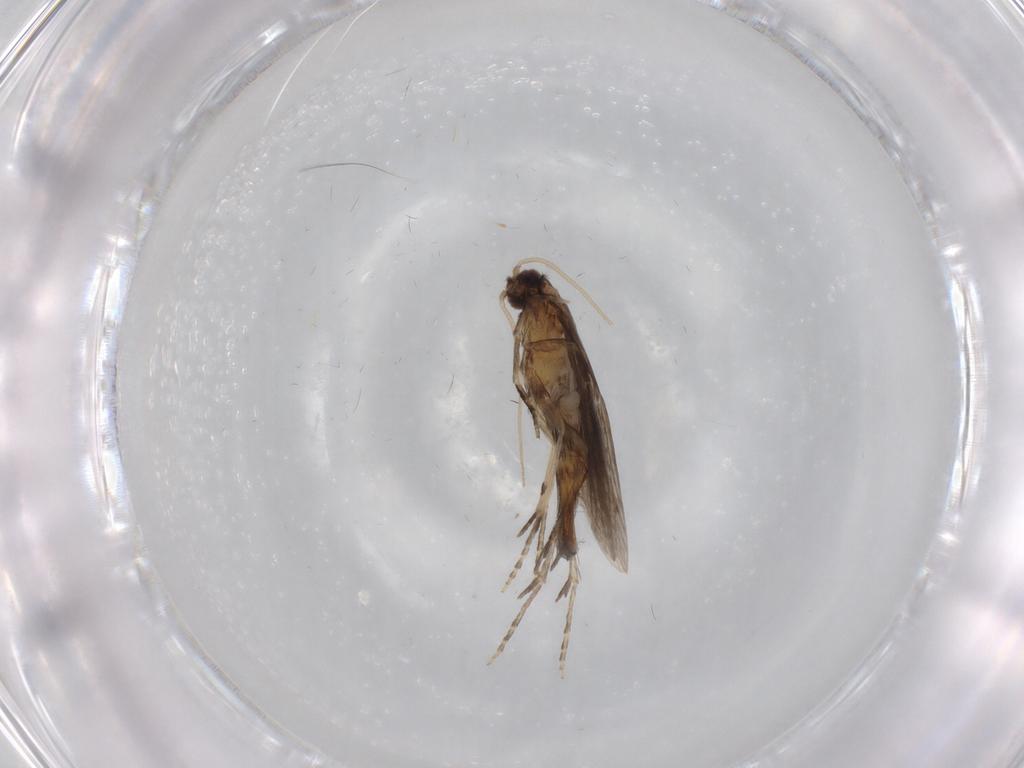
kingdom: Animalia
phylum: Arthropoda
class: Insecta
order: Trichoptera
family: Hydroptilidae
